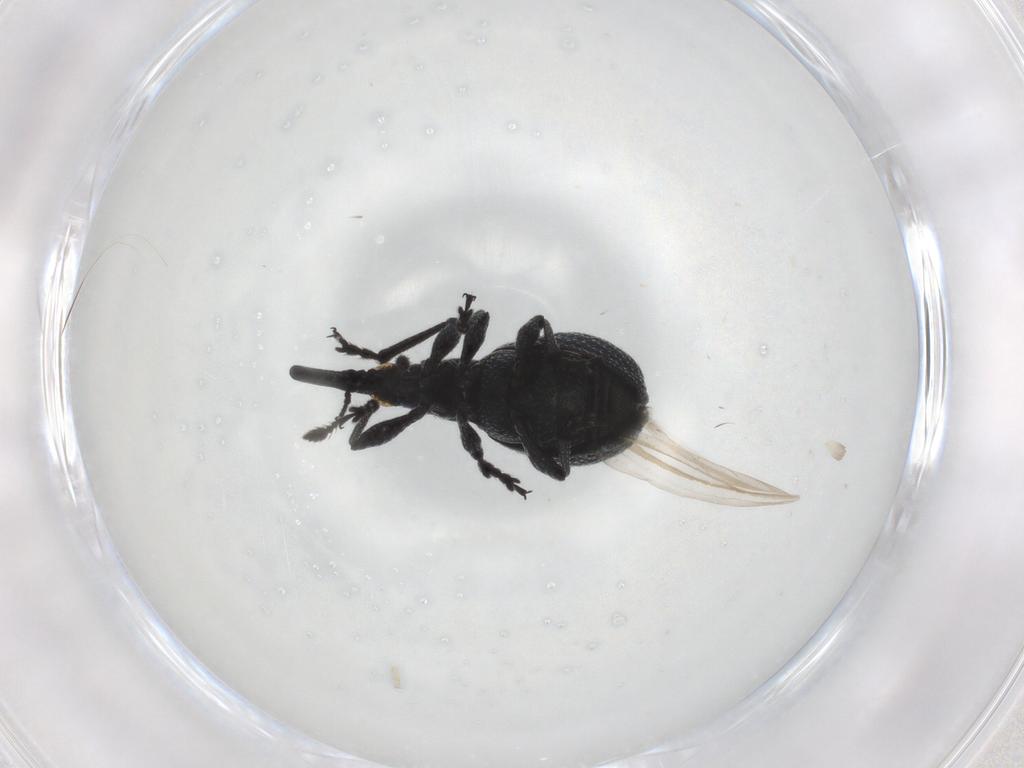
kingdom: Animalia
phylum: Arthropoda
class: Insecta
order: Coleoptera
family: Brentidae
